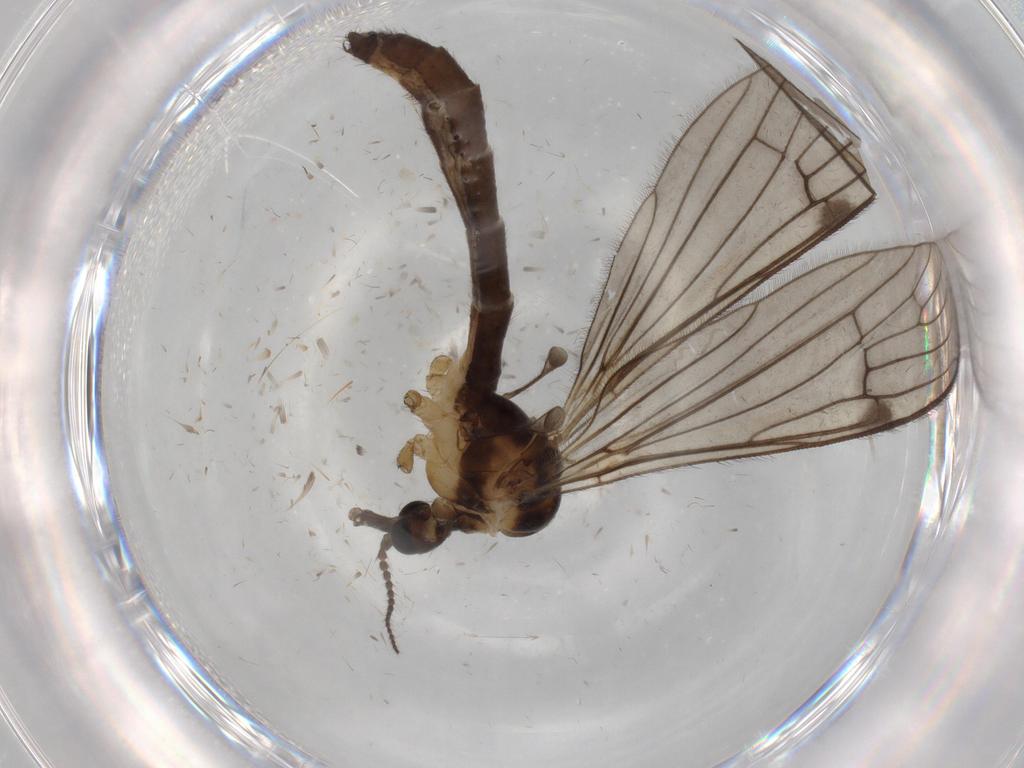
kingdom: Animalia
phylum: Arthropoda
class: Insecta
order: Diptera
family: Limoniidae
